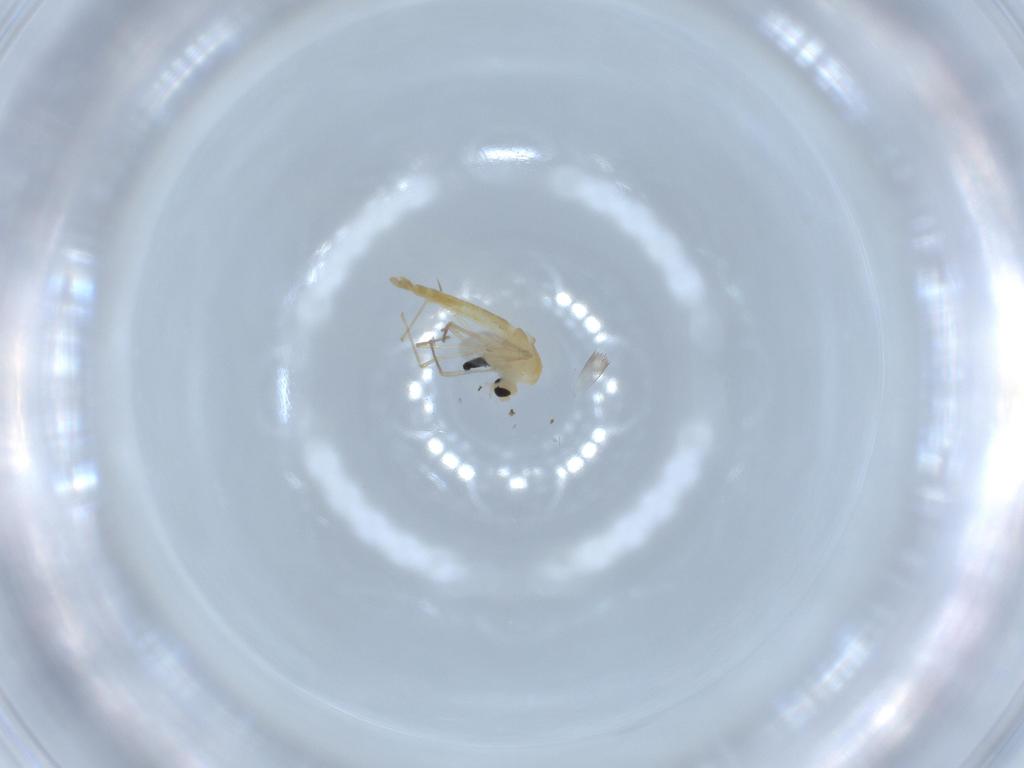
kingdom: Animalia
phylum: Arthropoda
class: Insecta
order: Diptera
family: Chironomidae
